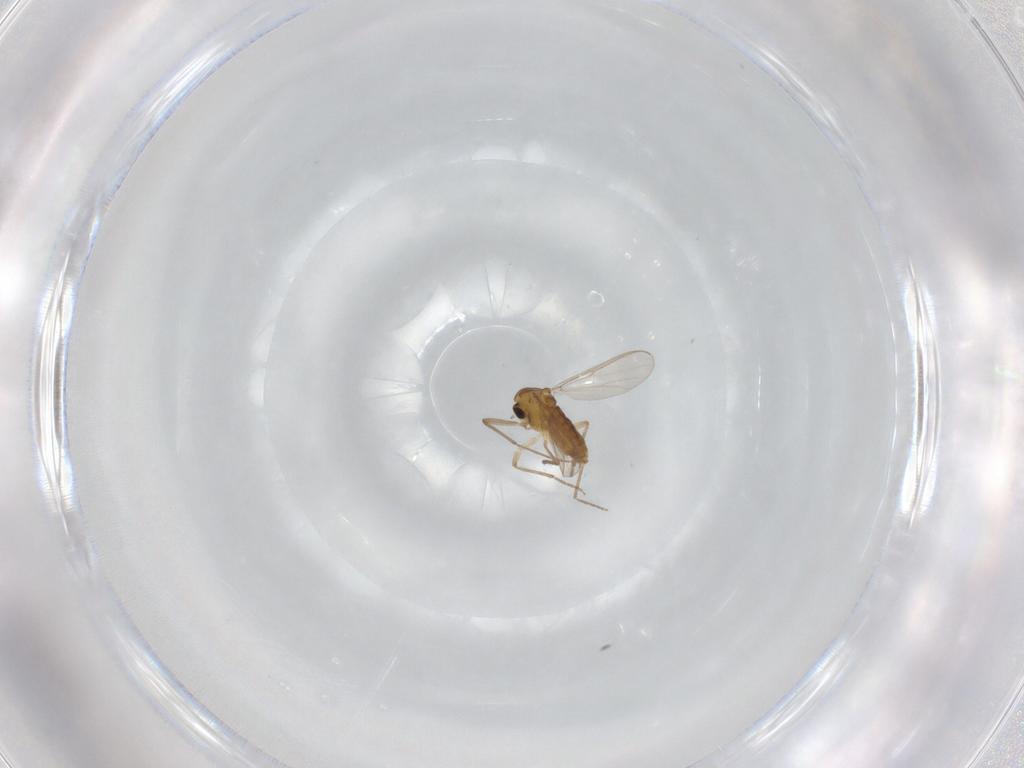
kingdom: Animalia
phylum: Arthropoda
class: Insecta
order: Diptera
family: Chironomidae
